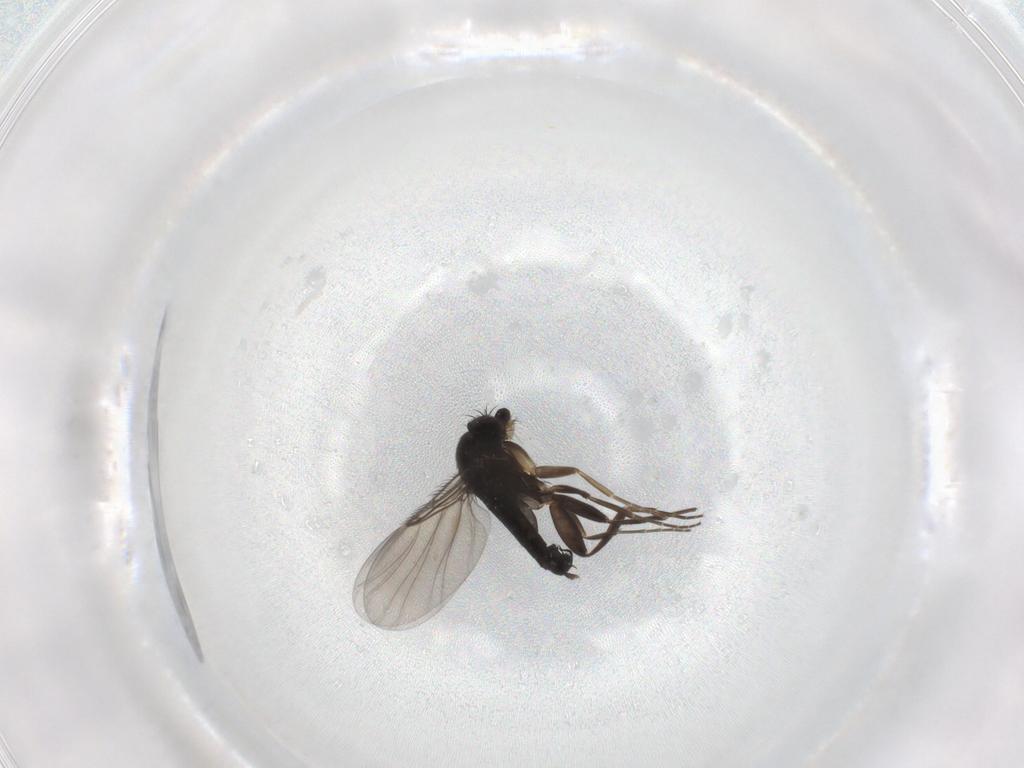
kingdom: Animalia
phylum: Arthropoda
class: Insecta
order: Diptera
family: Phoridae
